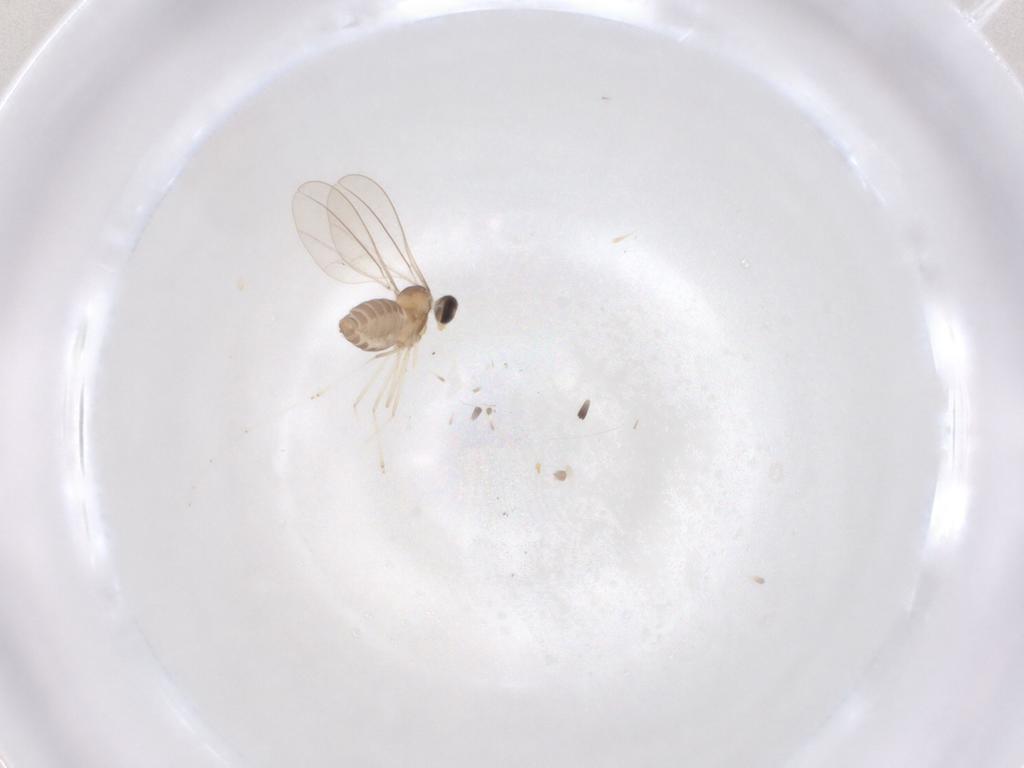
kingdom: Animalia
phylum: Arthropoda
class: Insecta
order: Diptera
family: Cecidomyiidae
